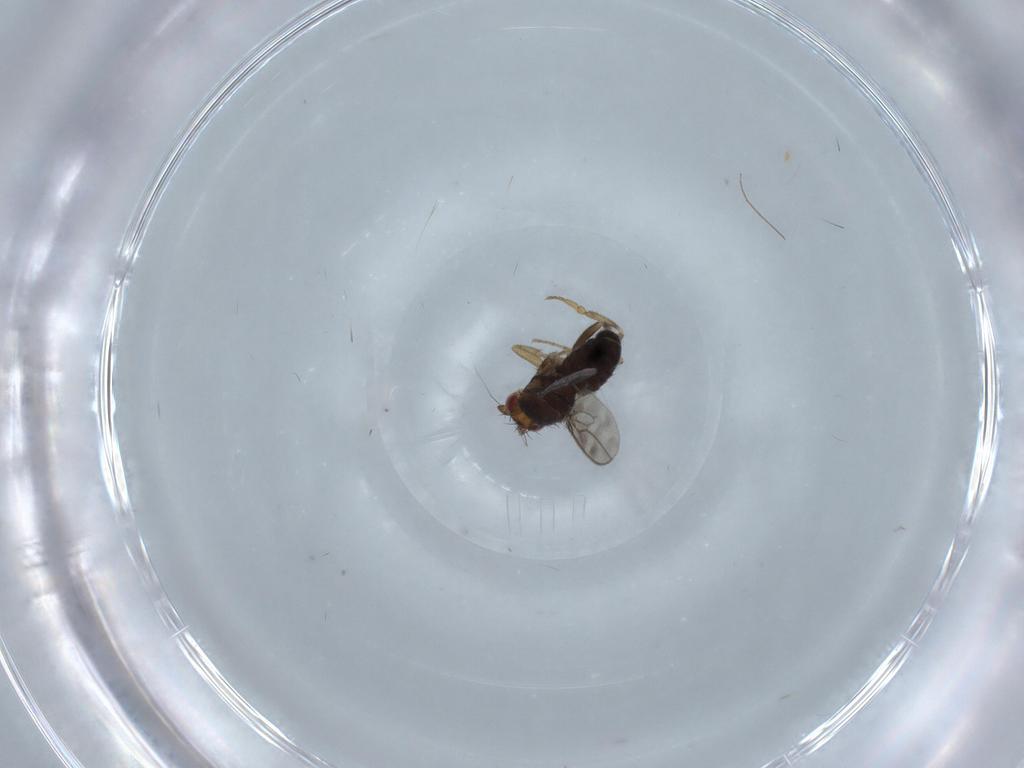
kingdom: Animalia
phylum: Arthropoda
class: Insecta
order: Diptera
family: Sphaeroceridae
